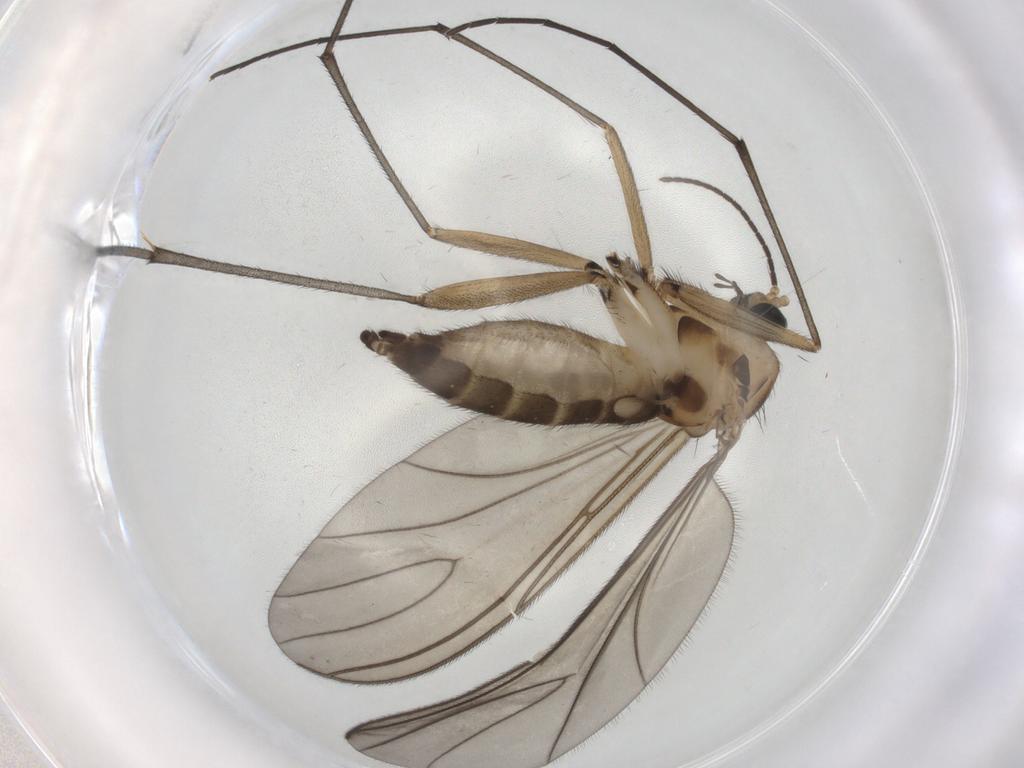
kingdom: Animalia
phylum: Arthropoda
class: Insecta
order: Diptera
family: Sciaridae
